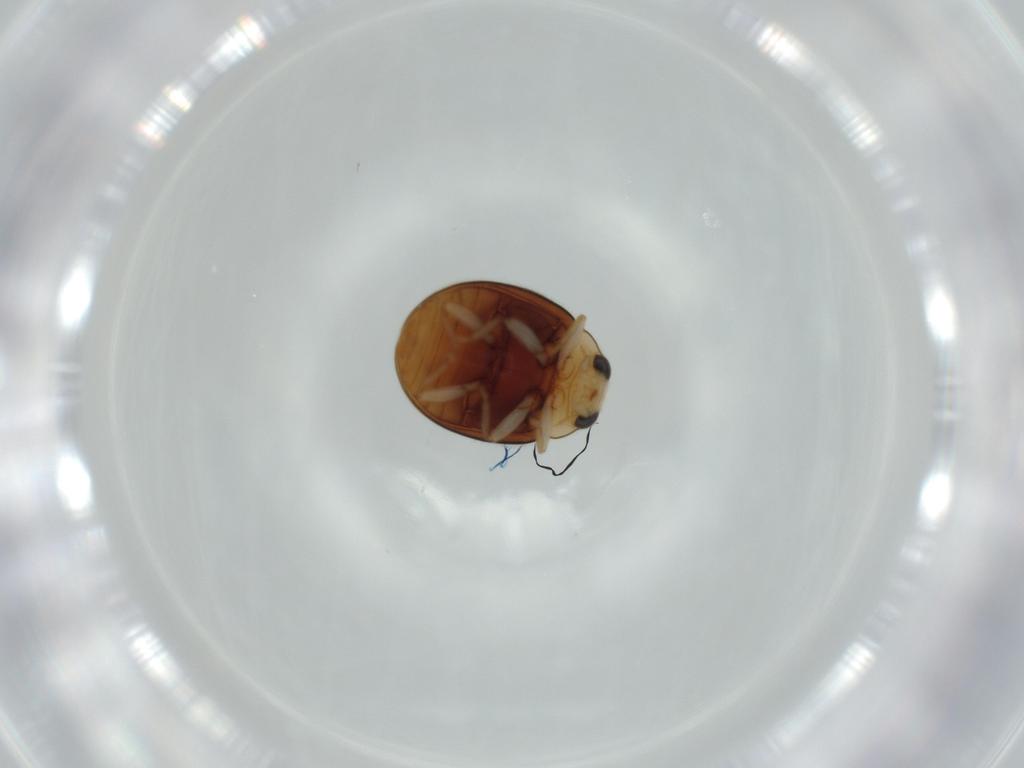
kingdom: Animalia
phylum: Arthropoda
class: Insecta
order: Coleoptera
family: Coccinellidae
